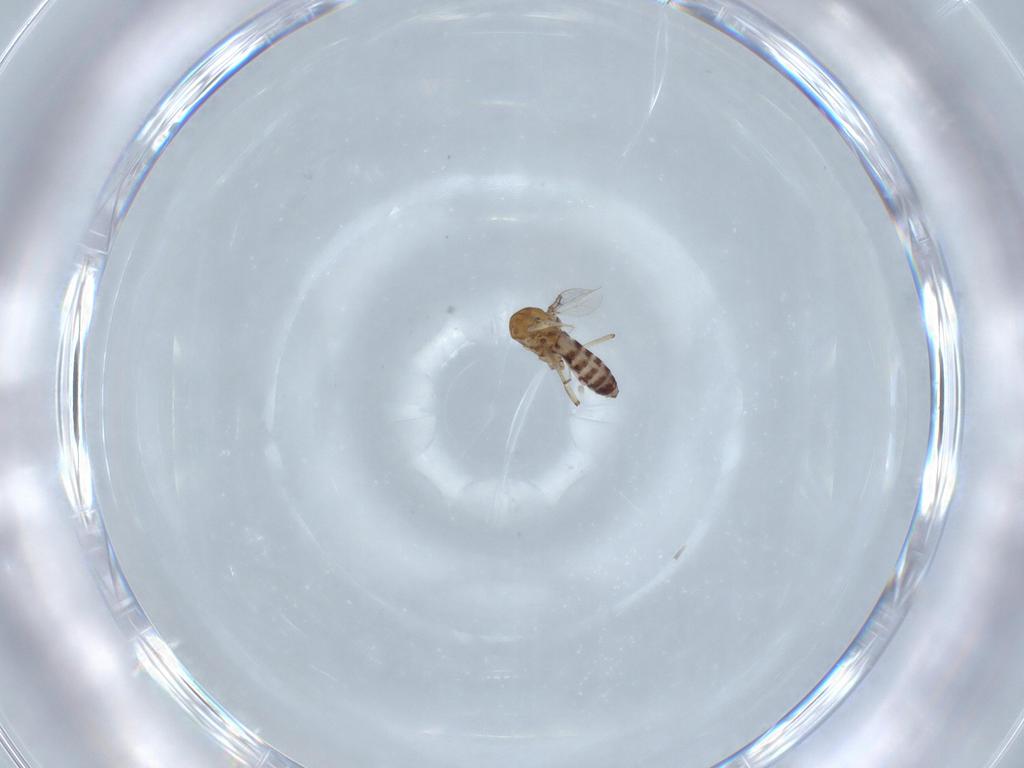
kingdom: Animalia
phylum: Arthropoda
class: Insecta
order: Diptera
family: Ceratopogonidae
